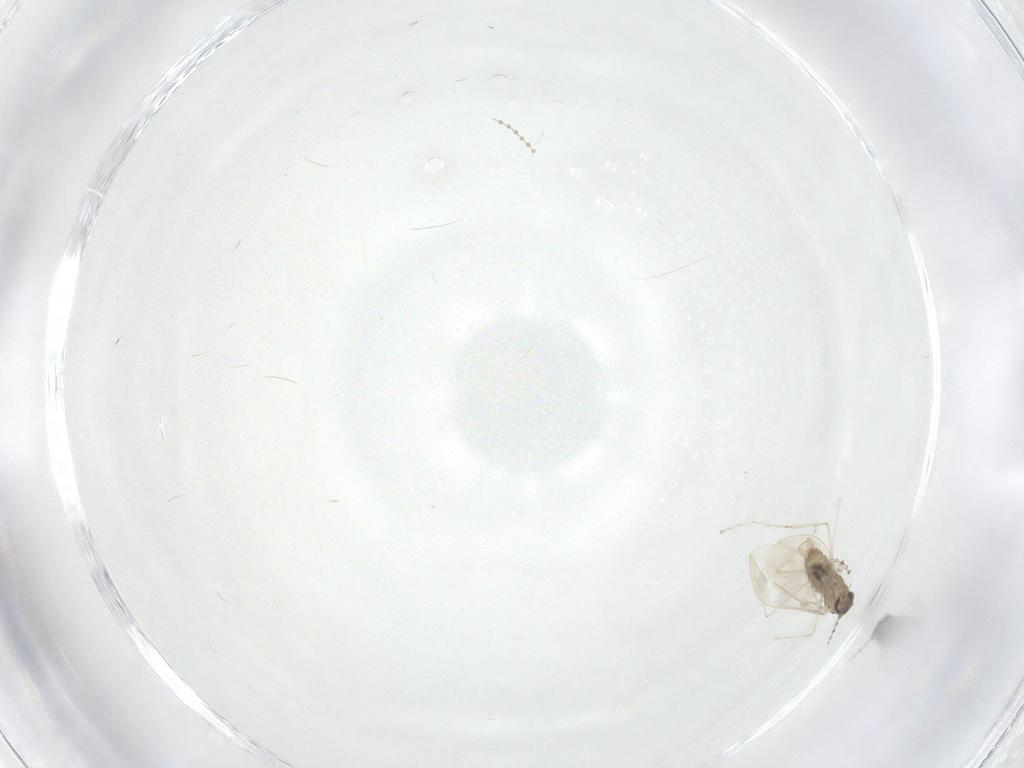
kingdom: Animalia
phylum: Arthropoda
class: Insecta
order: Diptera
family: Cecidomyiidae
